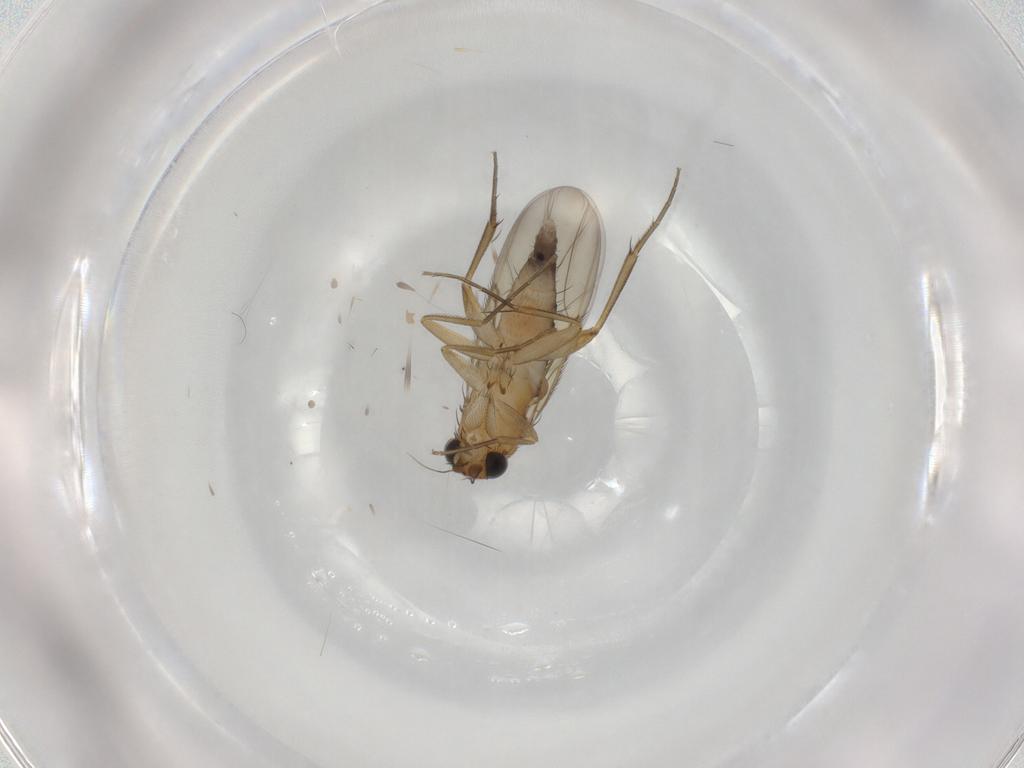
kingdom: Animalia
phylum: Arthropoda
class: Insecta
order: Diptera
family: Phoridae
